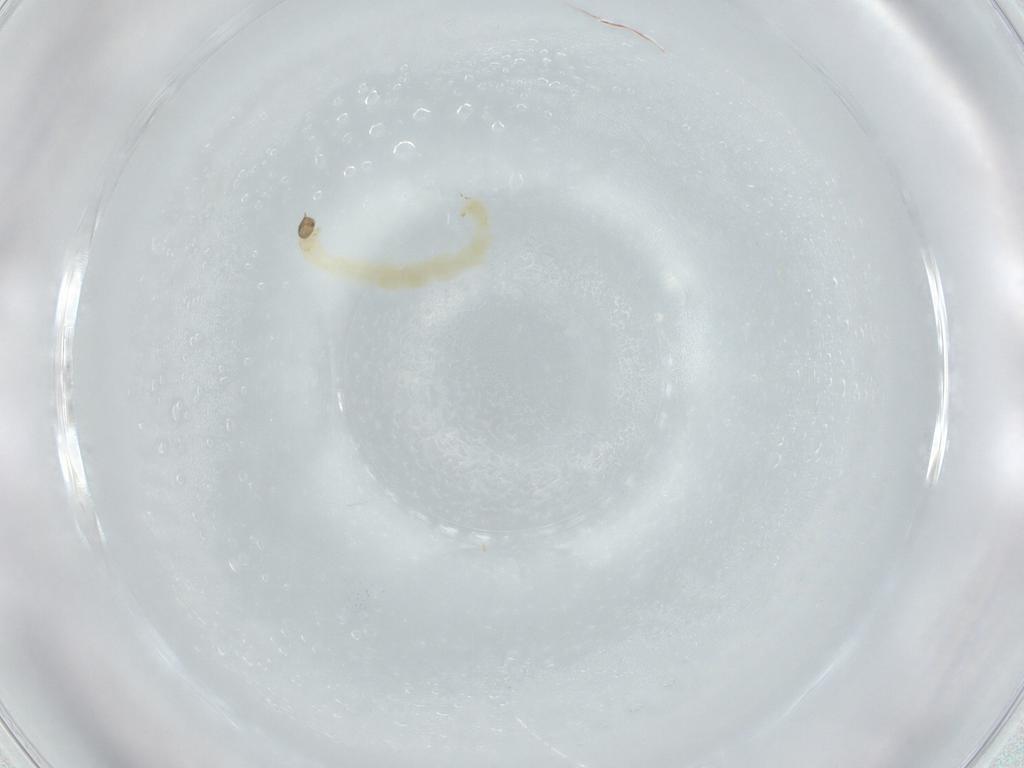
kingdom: Animalia
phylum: Arthropoda
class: Insecta
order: Diptera
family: Chironomidae
